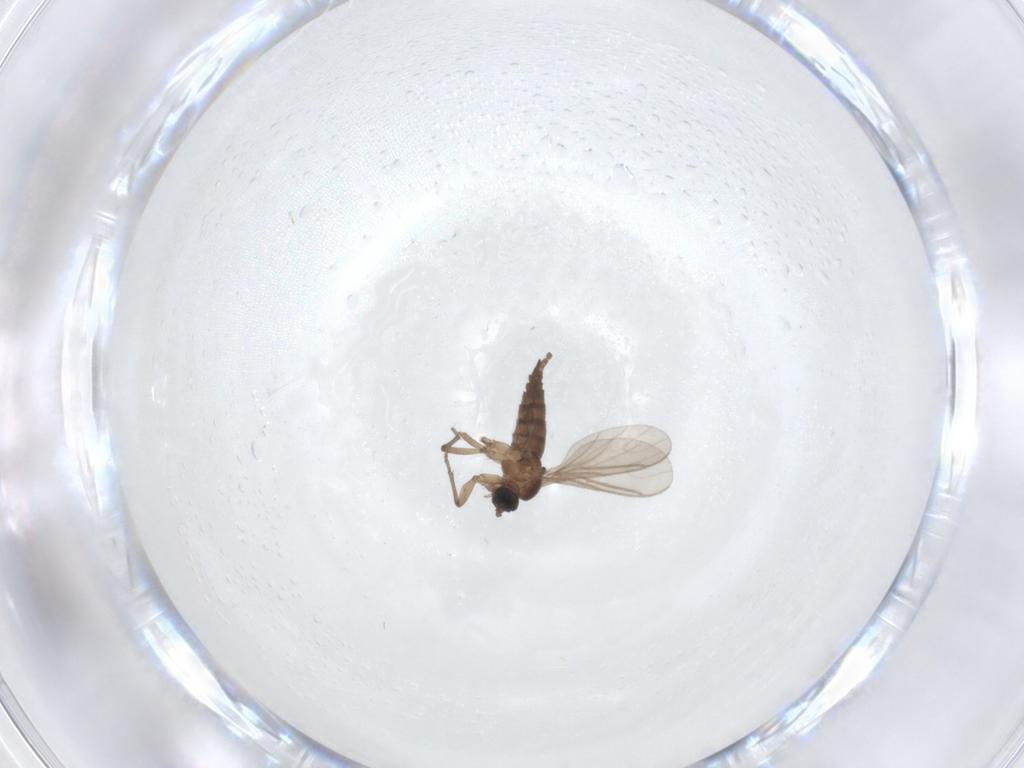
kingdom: Animalia
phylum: Arthropoda
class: Insecta
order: Diptera
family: Sciaridae
